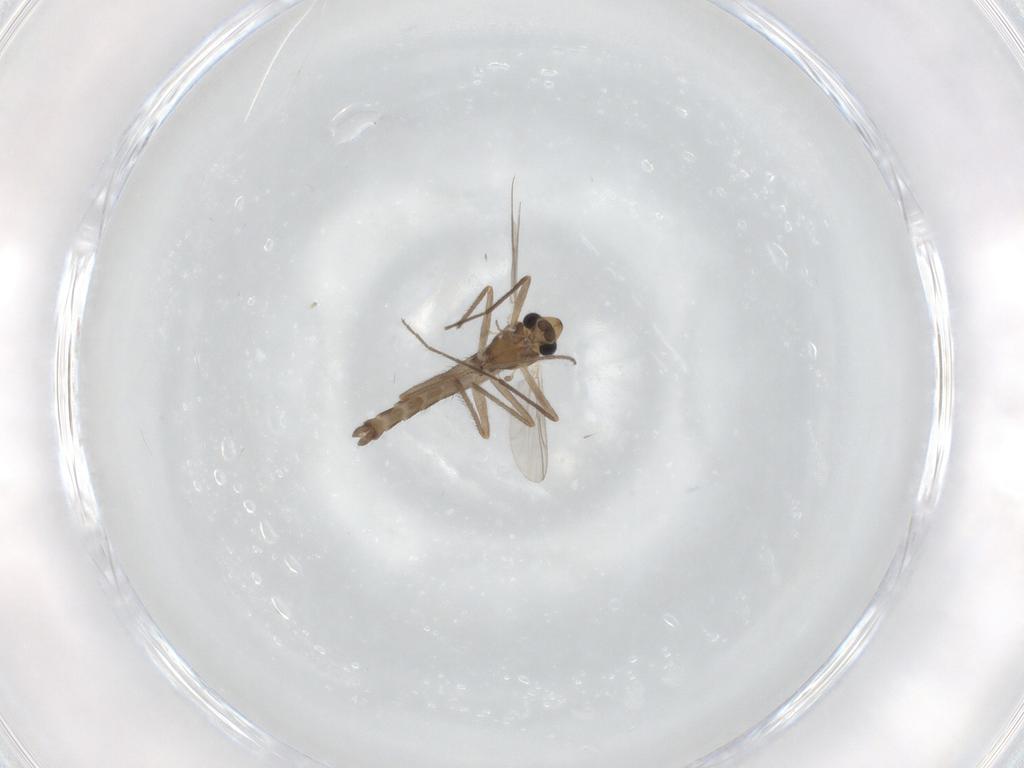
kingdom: Animalia
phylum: Arthropoda
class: Insecta
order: Diptera
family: Chironomidae
